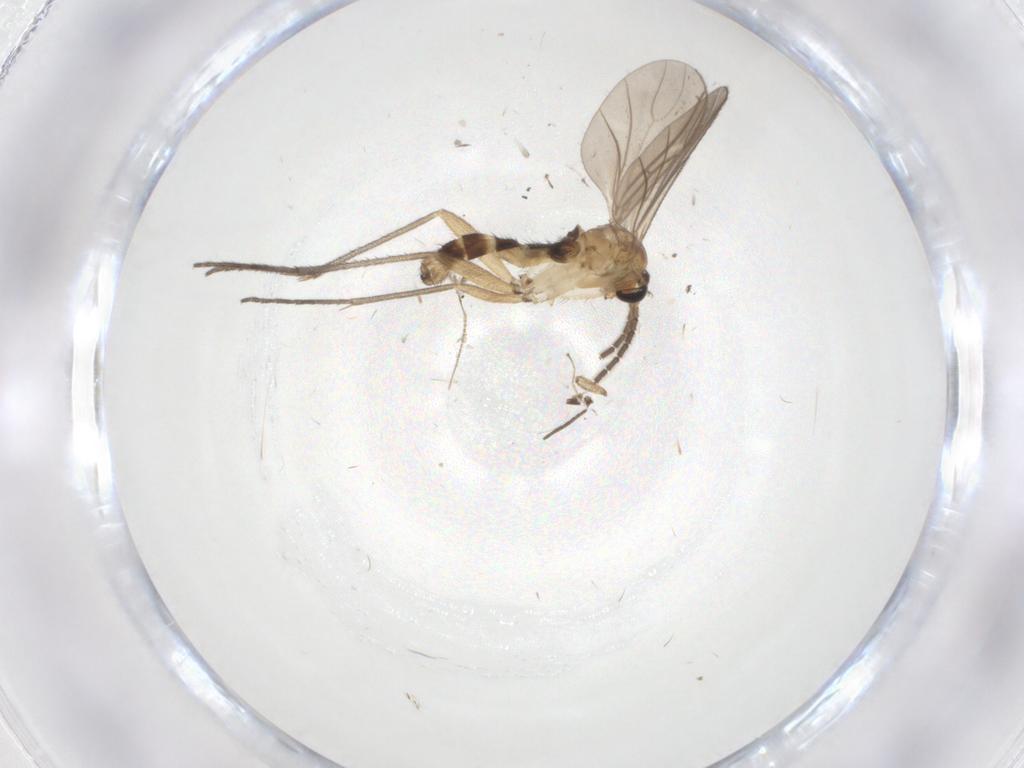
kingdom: Animalia
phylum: Arthropoda
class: Insecta
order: Diptera
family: Sciaridae
